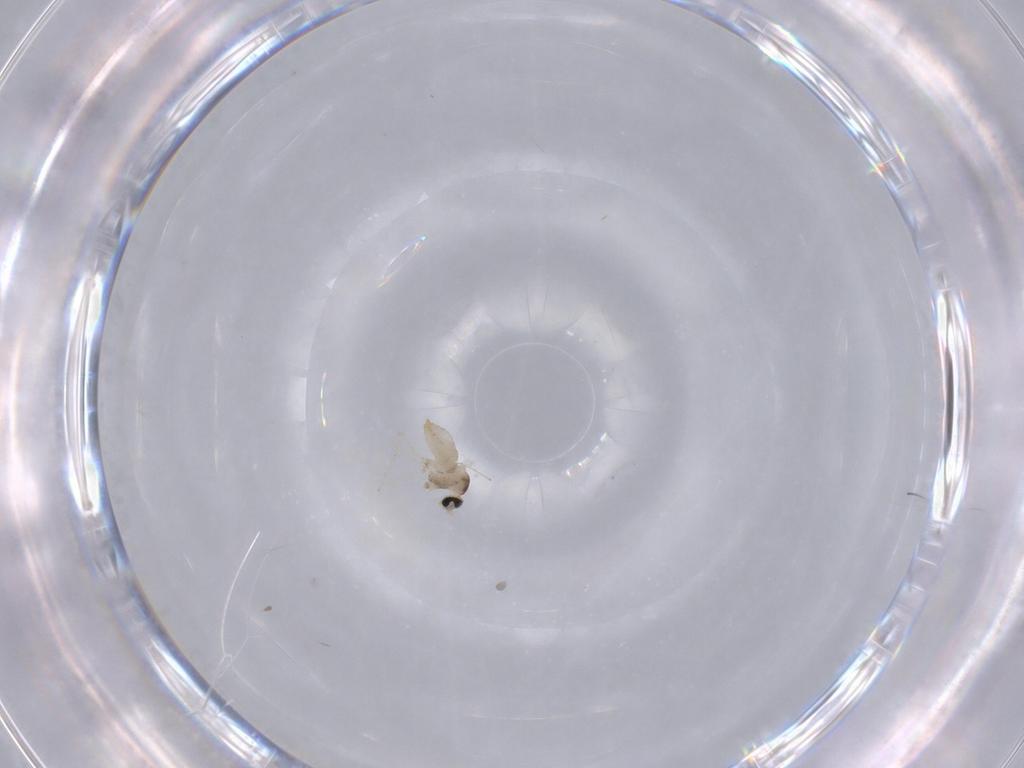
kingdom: Animalia
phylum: Arthropoda
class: Insecta
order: Diptera
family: Cecidomyiidae
